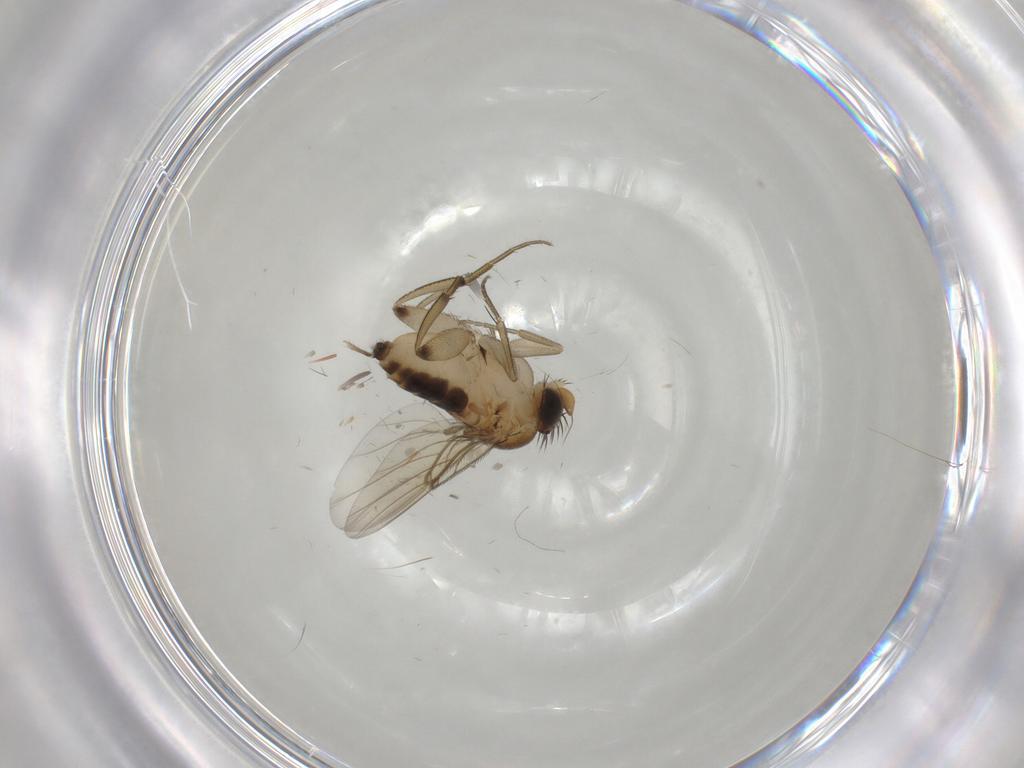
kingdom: Animalia
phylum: Arthropoda
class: Insecta
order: Diptera
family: Phoridae
